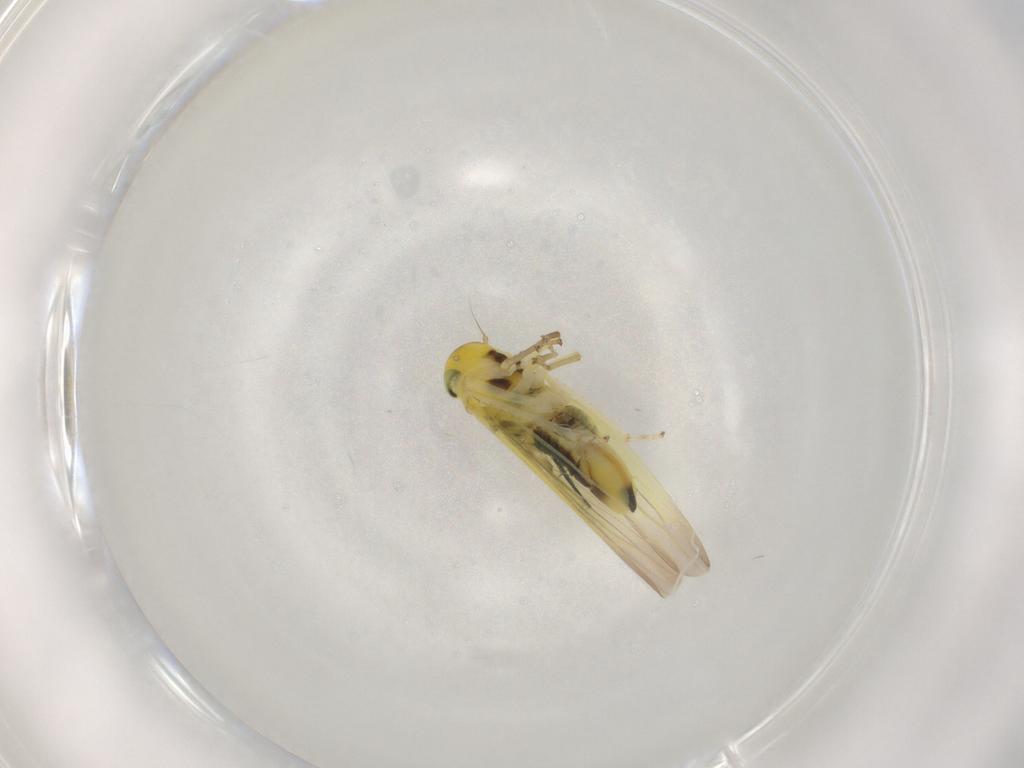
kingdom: Animalia
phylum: Arthropoda
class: Insecta
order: Hemiptera
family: Cicadellidae
